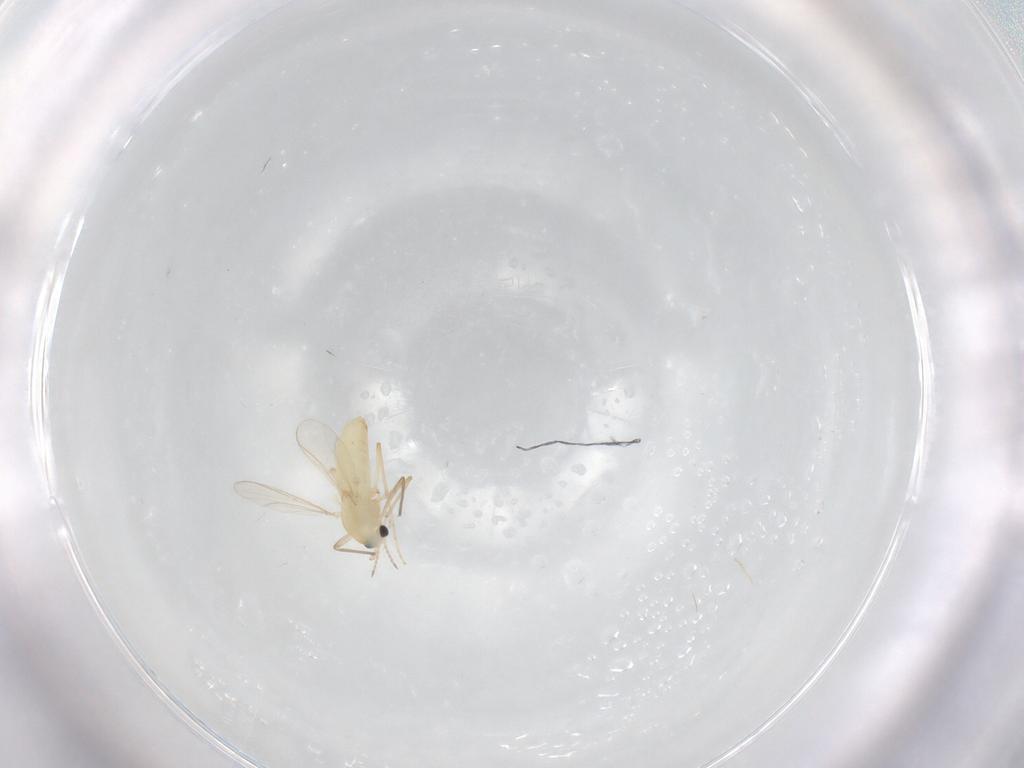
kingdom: Animalia
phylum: Arthropoda
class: Insecta
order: Diptera
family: Chironomidae
